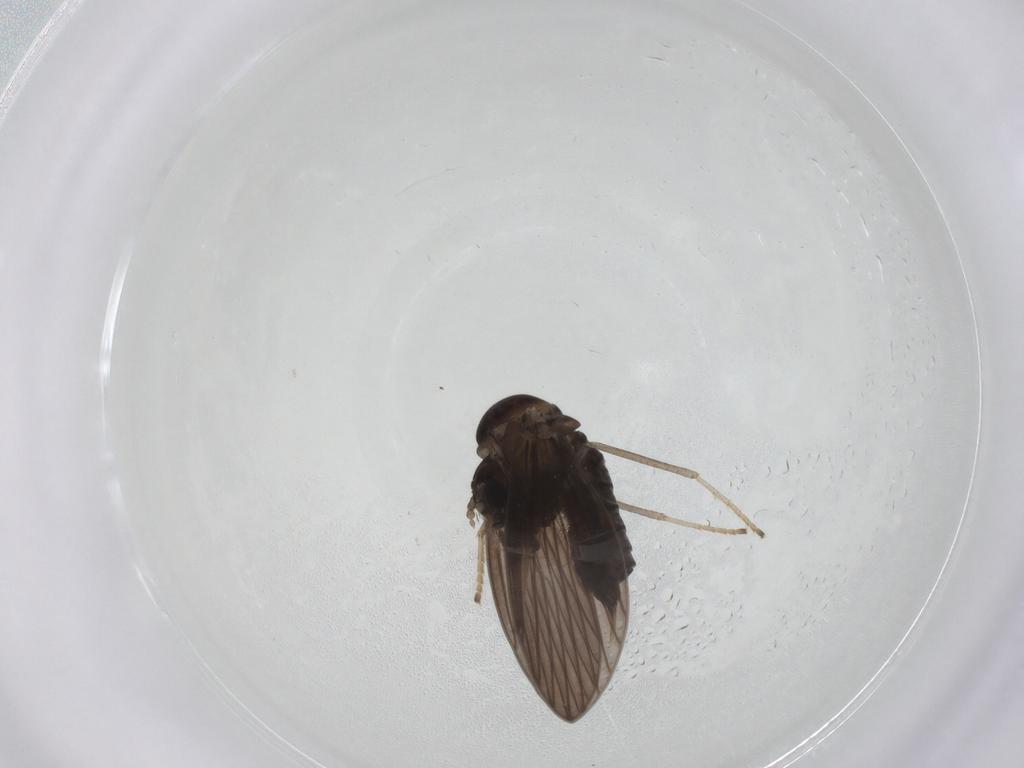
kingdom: Animalia
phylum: Arthropoda
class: Insecta
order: Diptera
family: Psychodidae
